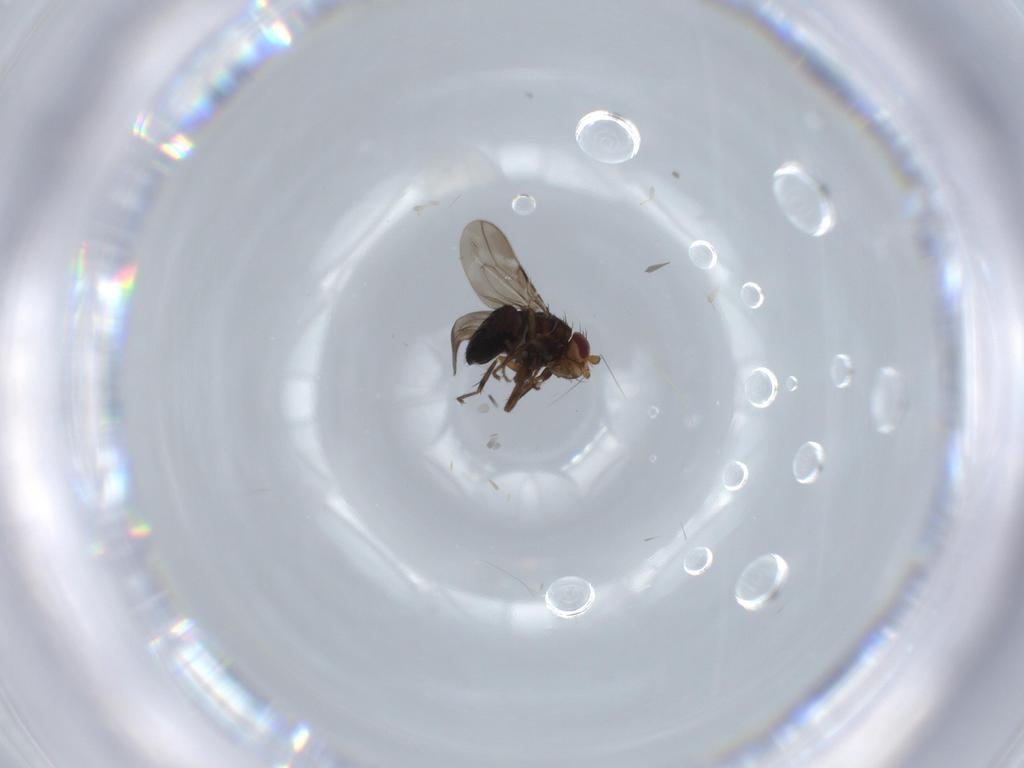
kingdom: Animalia
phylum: Arthropoda
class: Insecta
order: Diptera
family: Sphaeroceridae
